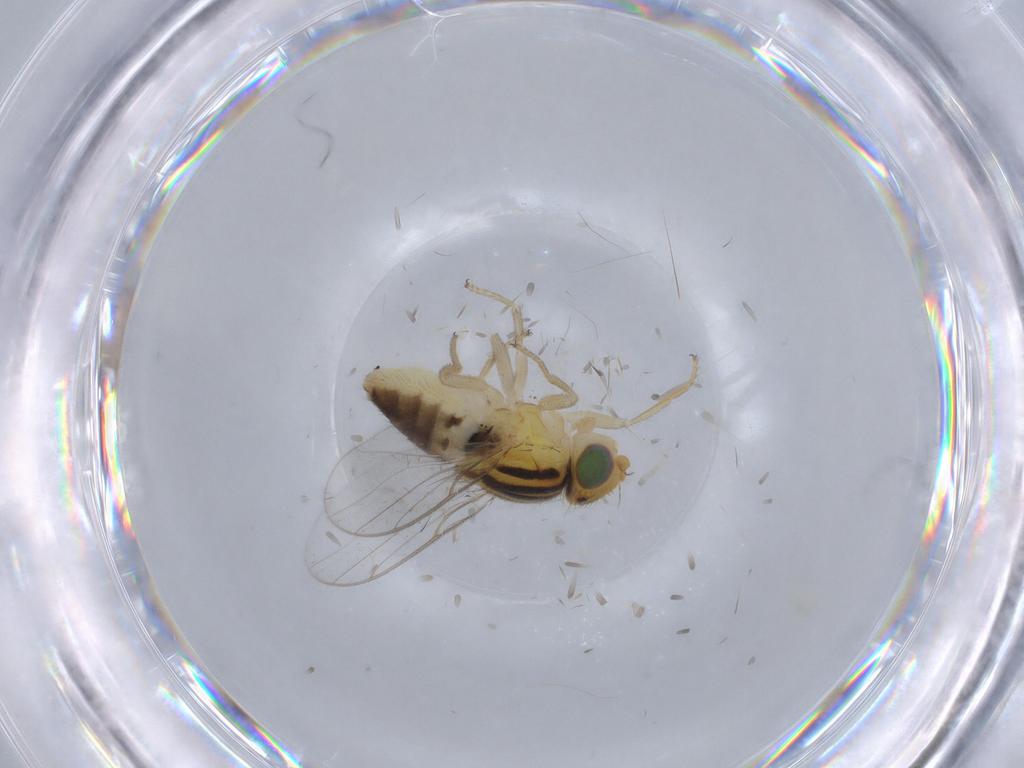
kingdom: Animalia
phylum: Arthropoda
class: Insecta
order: Diptera
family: Chloropidae
